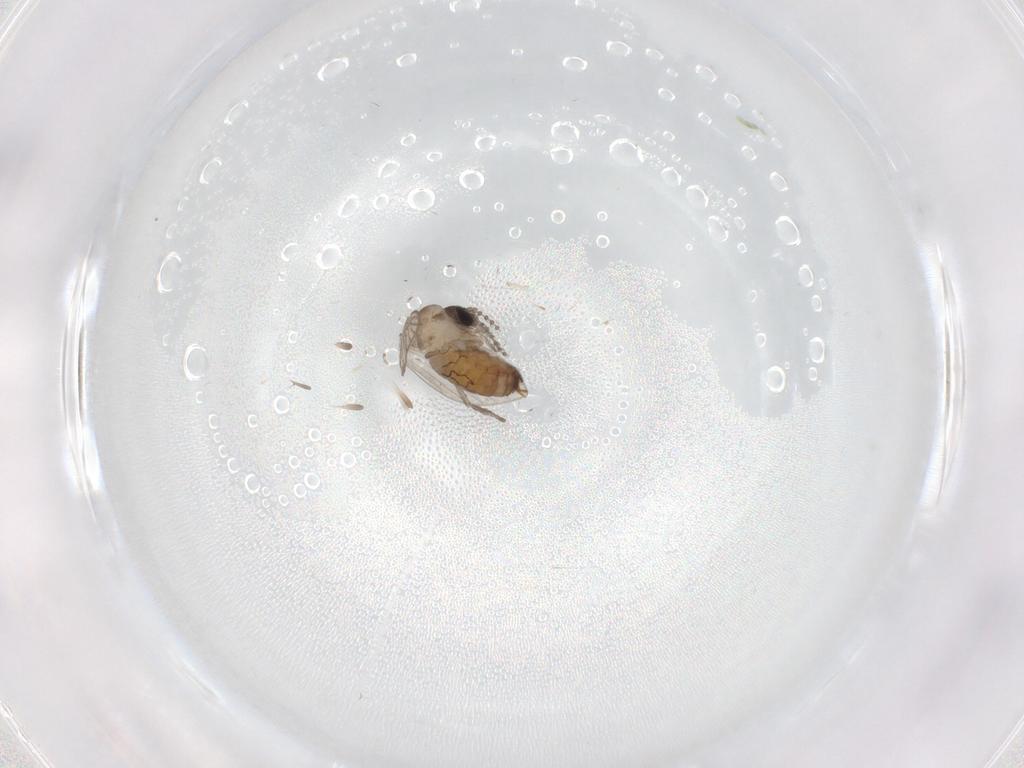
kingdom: Animalia
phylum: Arthropoda
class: Insecta
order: Diptera
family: Psychodidae
